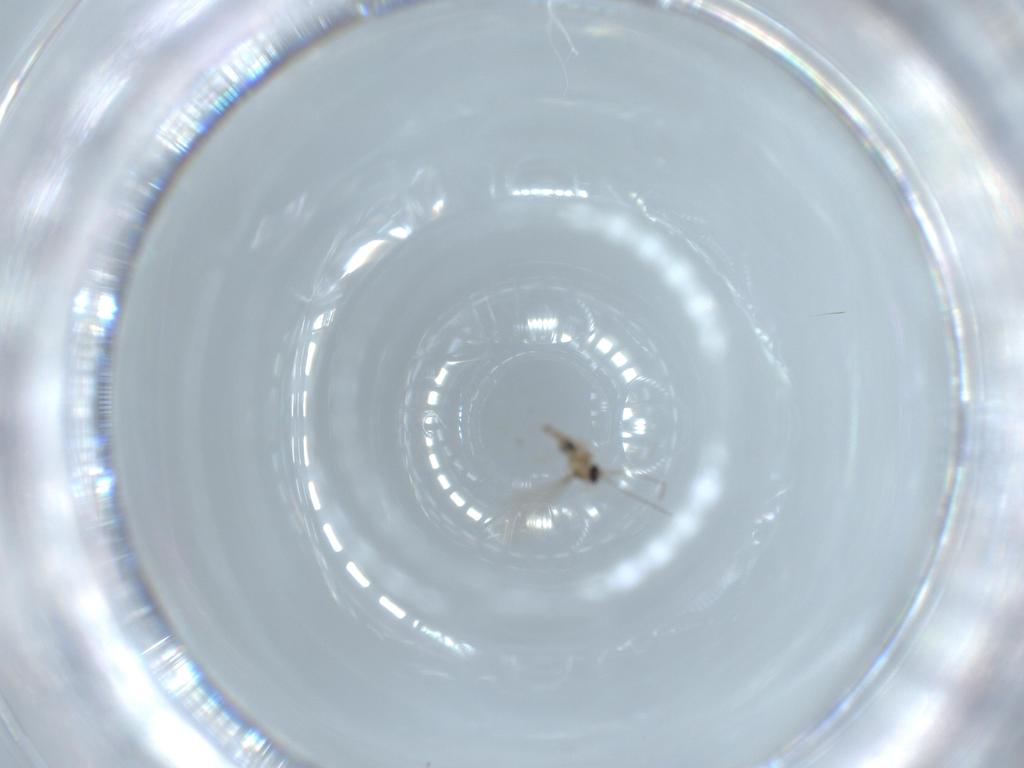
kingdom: Animalia
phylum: Arthropoda
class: Insecta
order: Diptera
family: Cecidomyiidae
